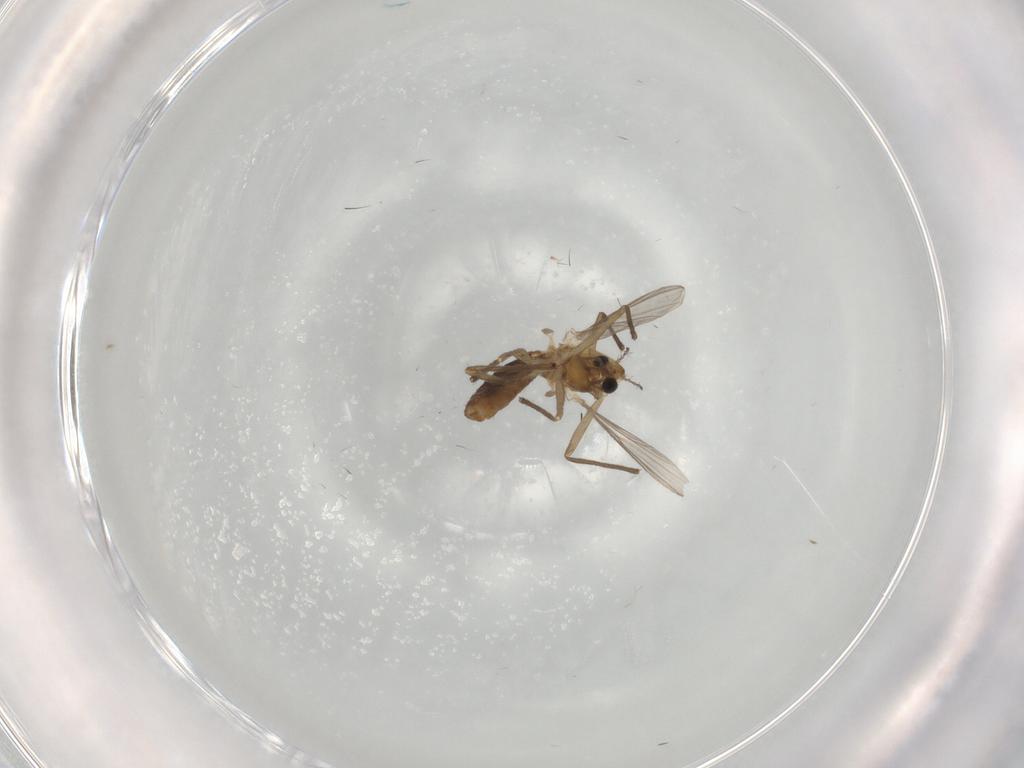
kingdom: Animalia
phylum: Arthropoda
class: Insecta
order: Diptera
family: Chironomidae
